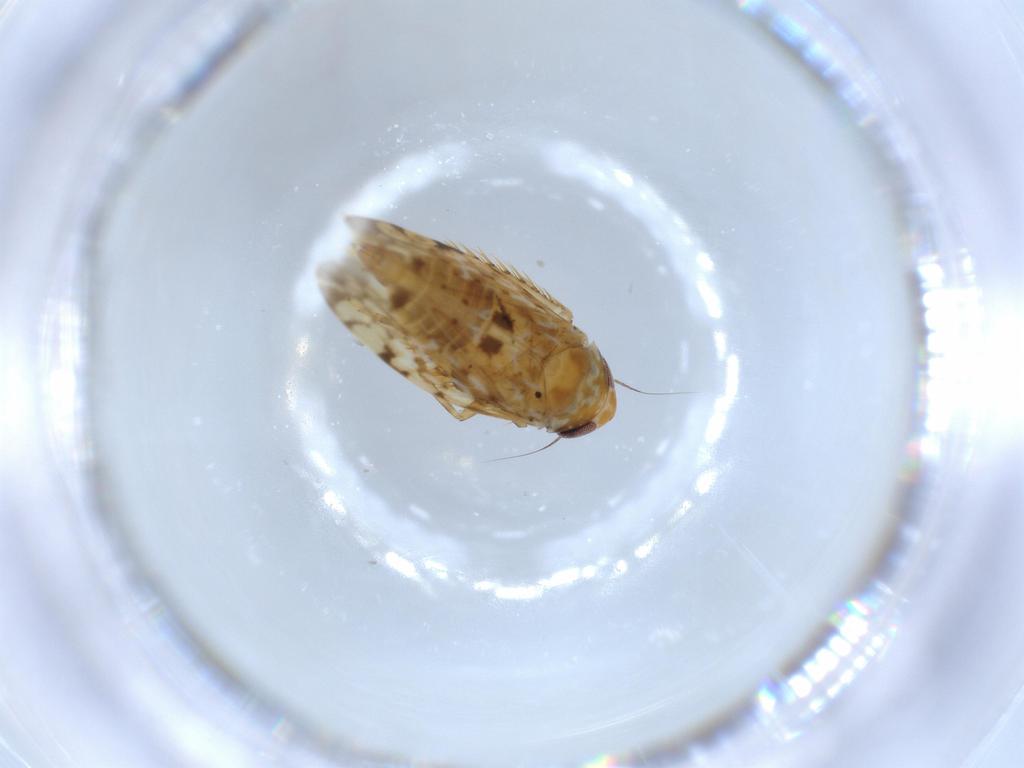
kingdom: Animalia
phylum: Arthropoda
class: Insecta
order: Hemiptera
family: Cicadellidae
